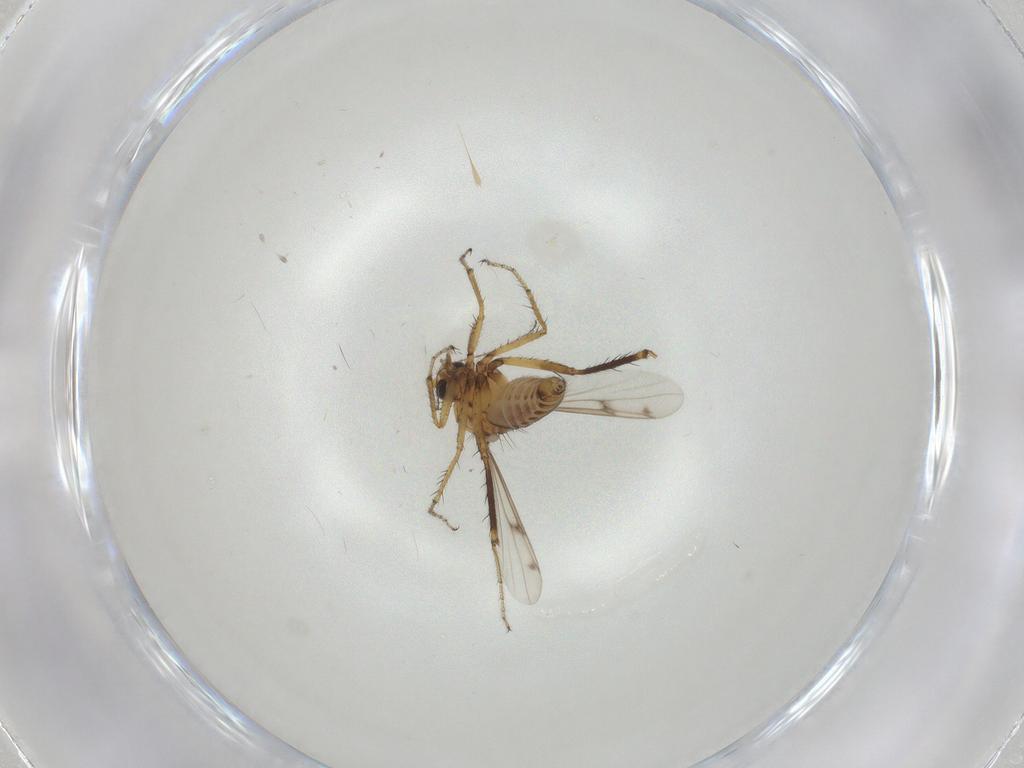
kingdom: Animalia
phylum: Arthropoda
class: Insecta
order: Diptera
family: Ceratopogonidae
